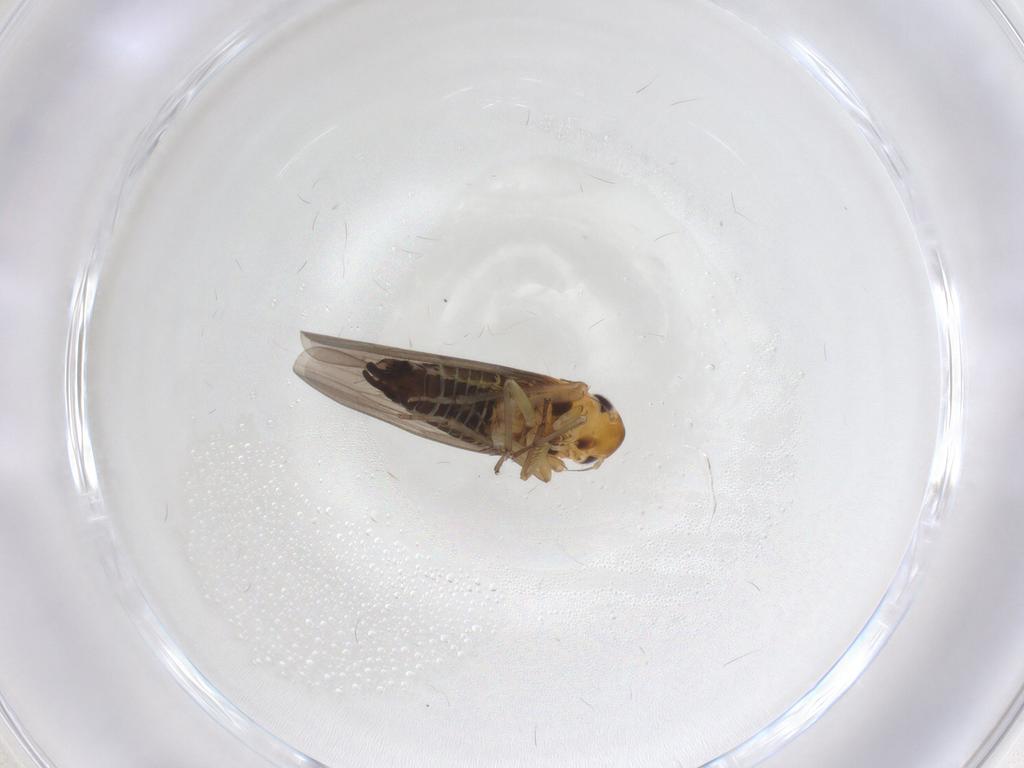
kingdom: Animalia
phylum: Arthropoda
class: Insecta
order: Hemiptera
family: Cicadellidae
